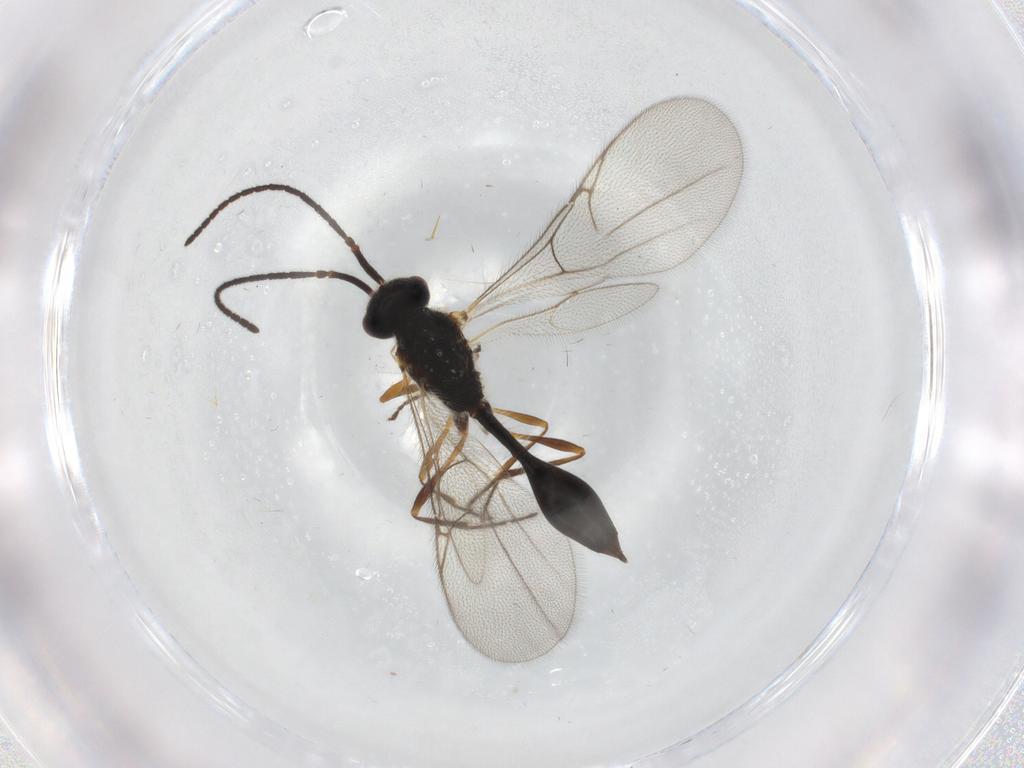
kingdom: Animalia
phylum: Arthropoda
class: Insecta
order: Hymenoptera
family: Diapriidae
